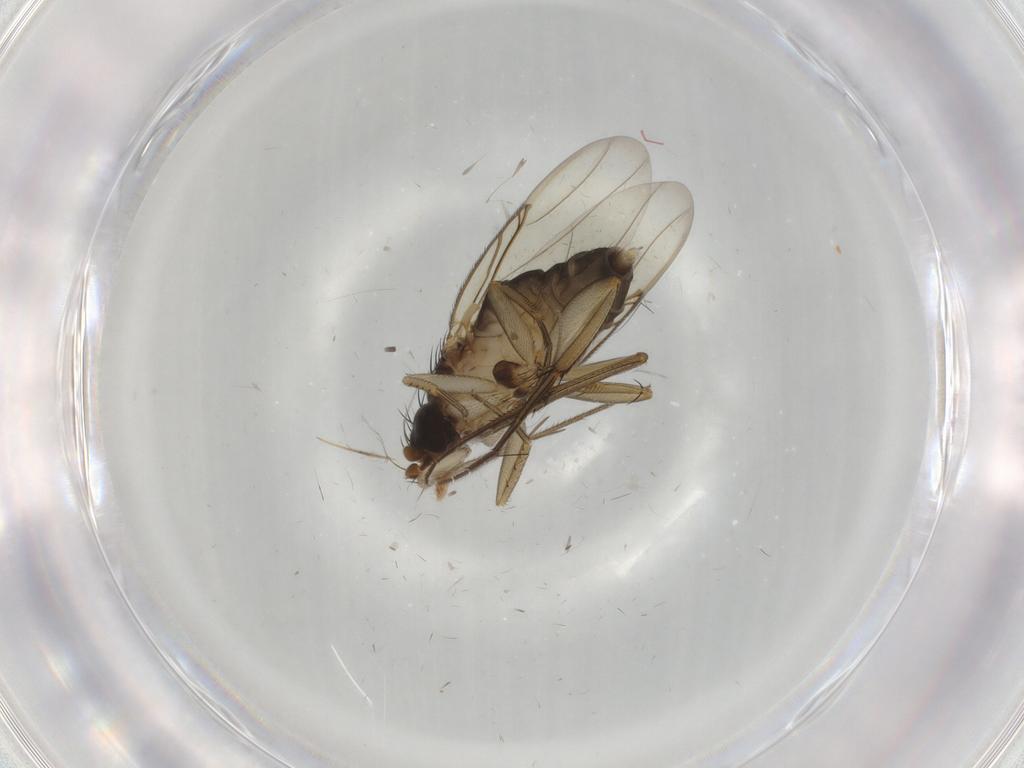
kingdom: Animalia
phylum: Arthropoda
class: Insecta
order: Diptera
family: Mycetophilidae
